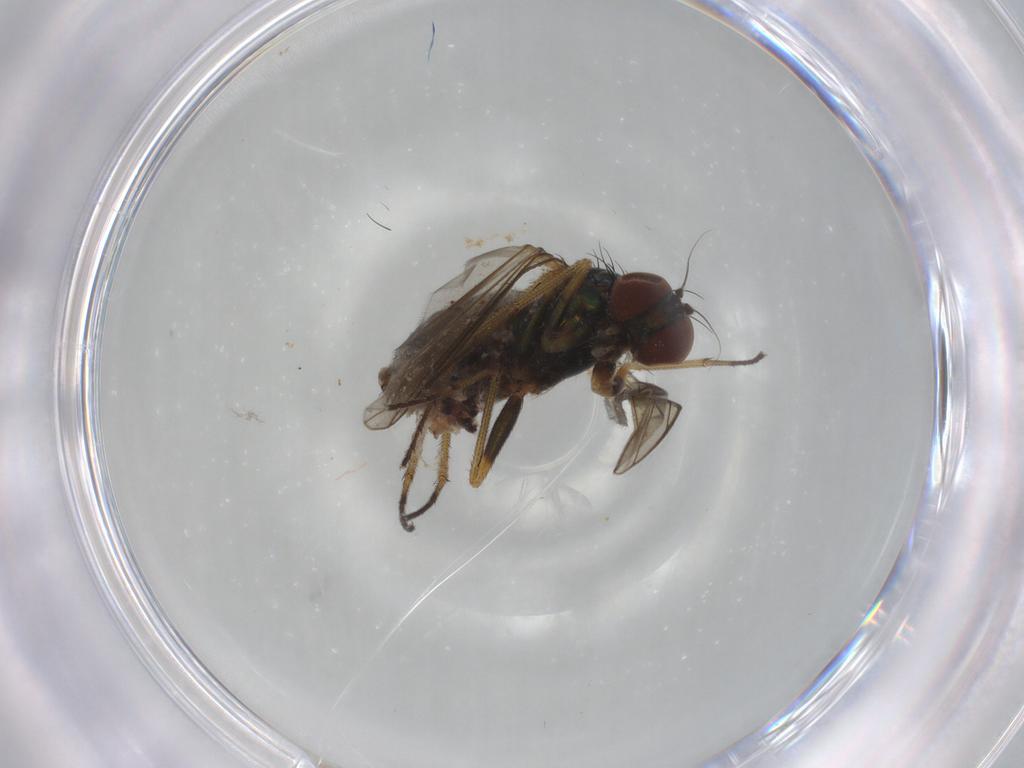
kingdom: Animalia
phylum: Arthropoda
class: Insecta
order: Diptera
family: Dolichopodidae
